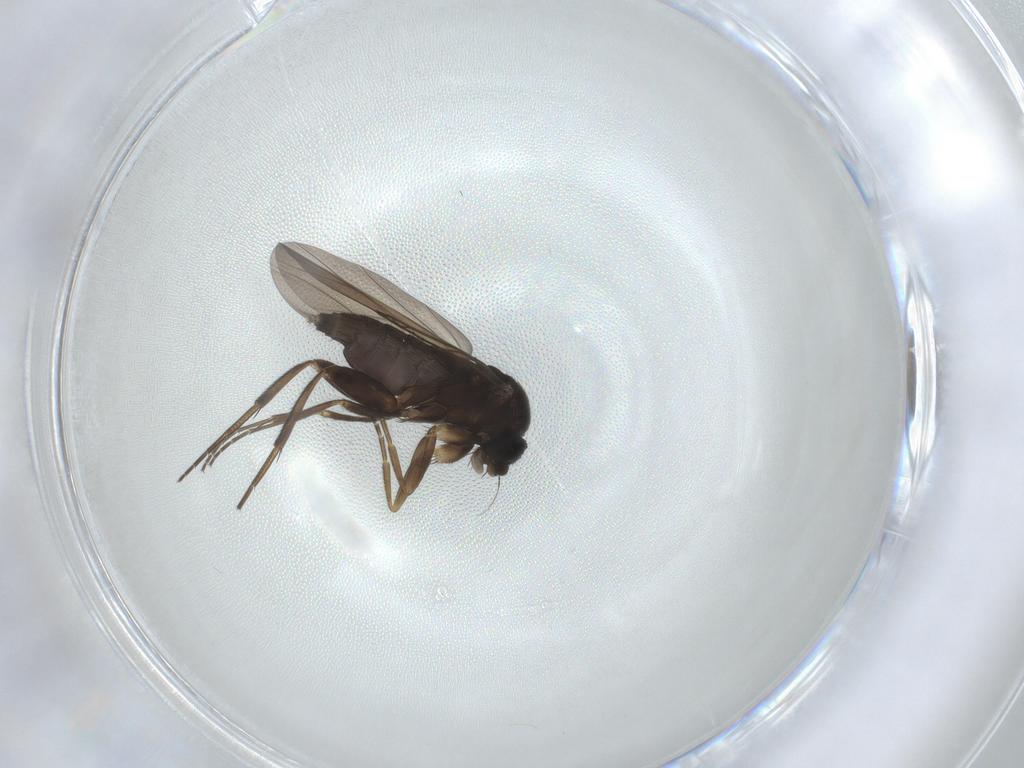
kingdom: Animalia
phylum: Arthropoda
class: Insecta
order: Diptera
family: Phoridae
